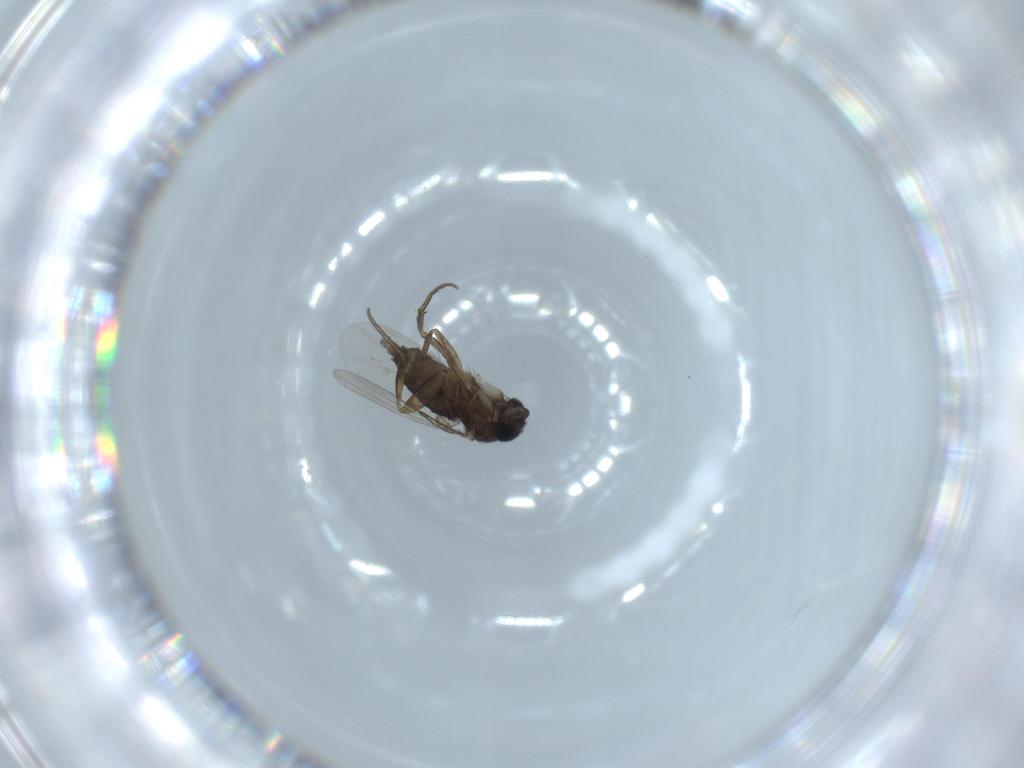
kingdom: Animalia
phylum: Arthropoda
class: Insecta
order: Diptera
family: Phoridae
